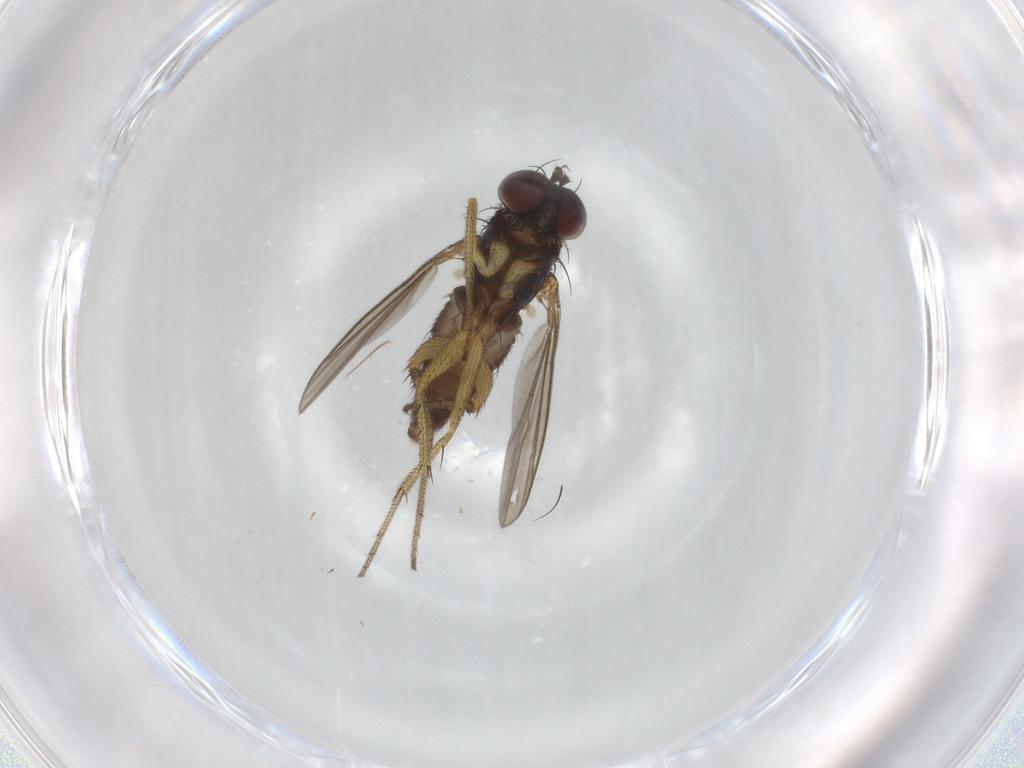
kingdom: Animalia
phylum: Arthropoda
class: Insecta
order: Diptera
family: Dolichopodidae
